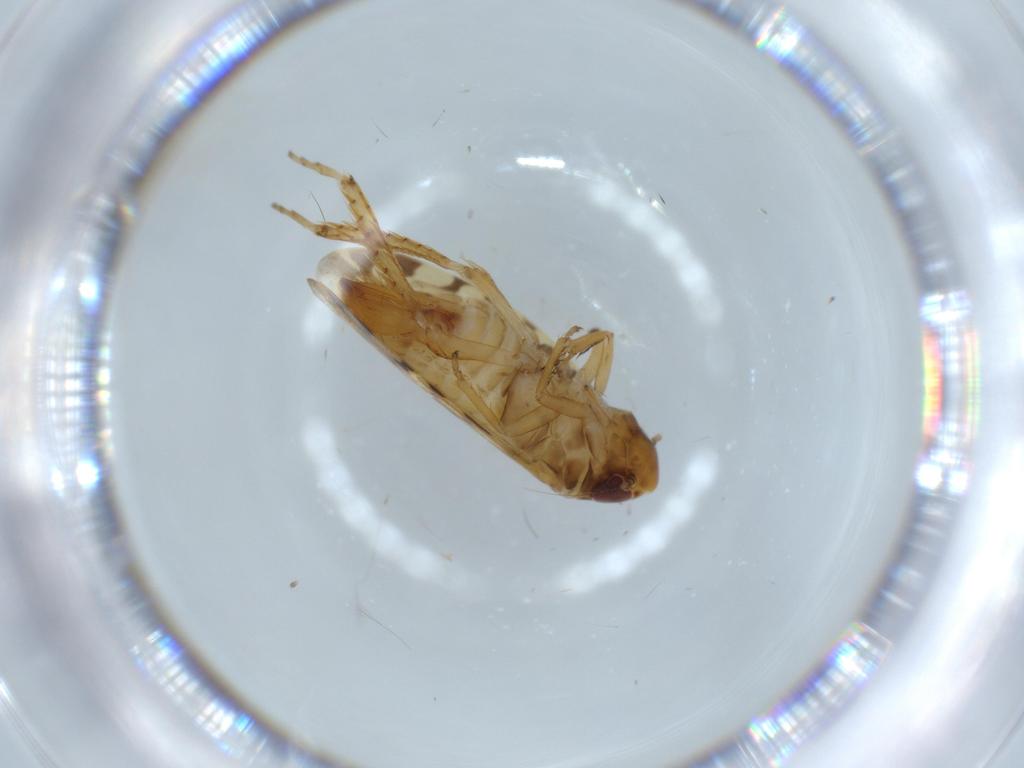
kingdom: Animalia
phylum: Arthropoda
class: Insecta
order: Hemiptera
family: Cicadellidae
